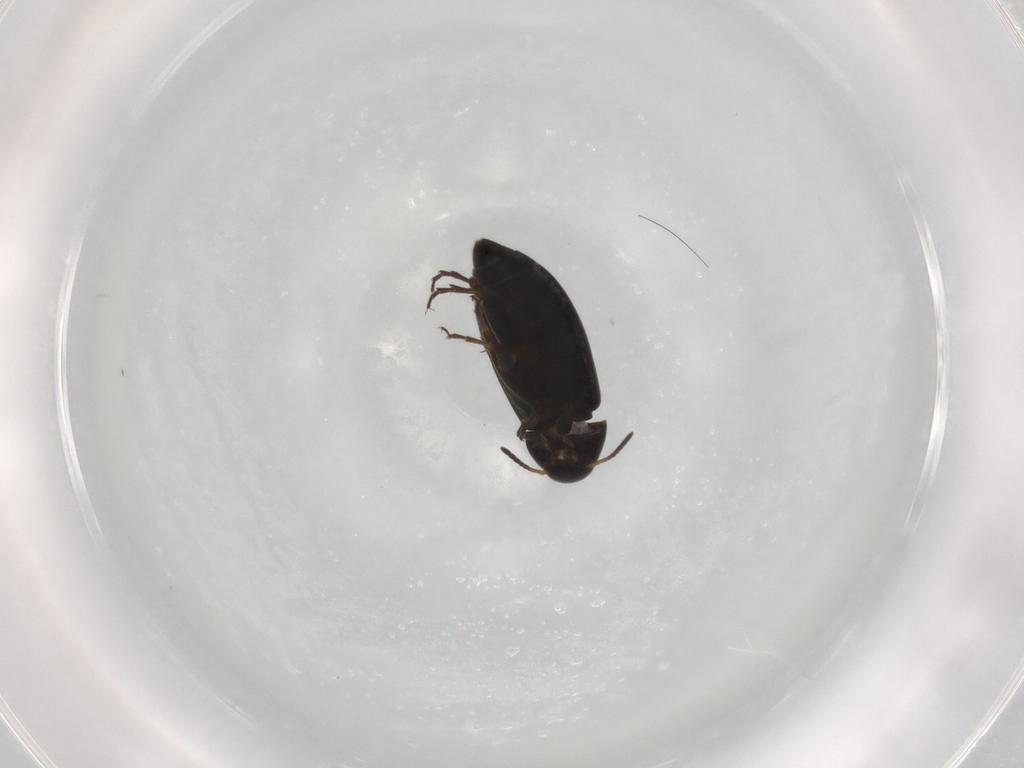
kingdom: Animalia
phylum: Arthropoda
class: Insecta
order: Coleoptera
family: Scraptiidae
